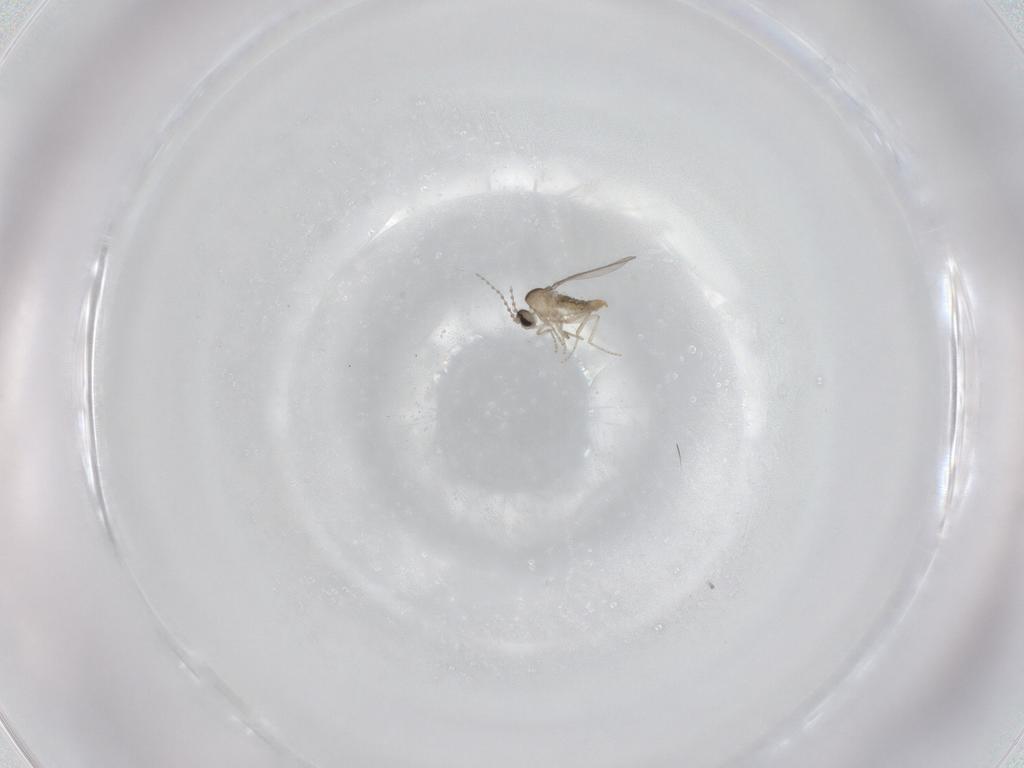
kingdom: Animalia
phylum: Arthropoda
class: Insecta
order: Diptera
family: Cecidomyiidae
